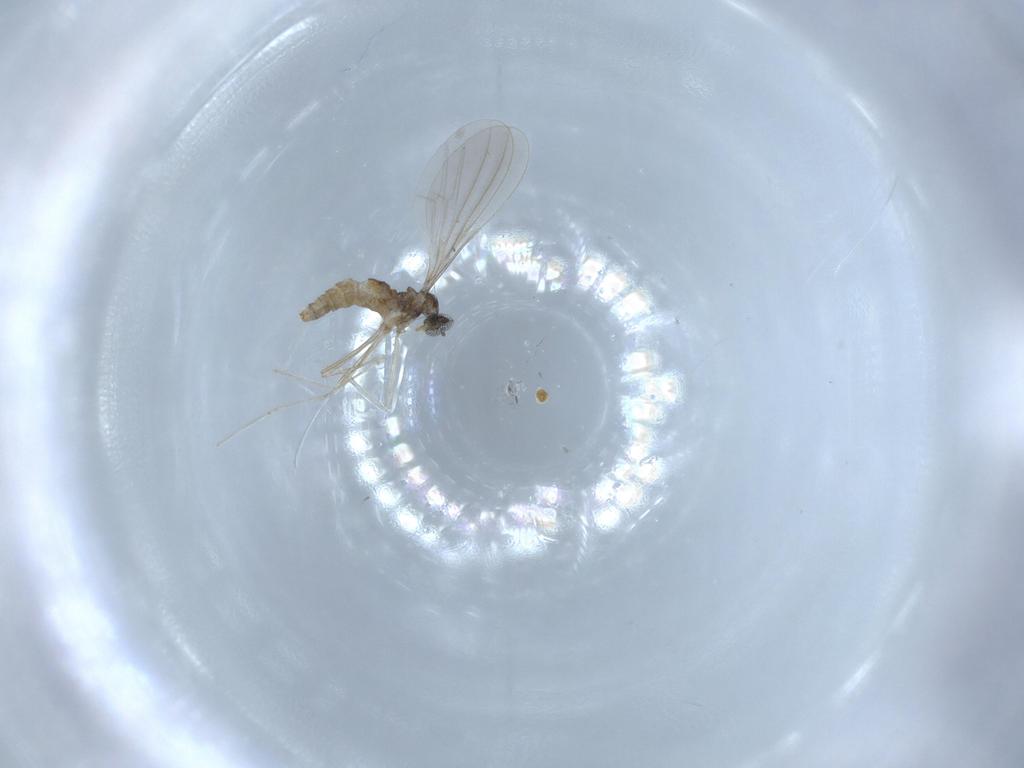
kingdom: Animalia
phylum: Arthropoda
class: Insecta
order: Diptera
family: Cecidomyiidae
